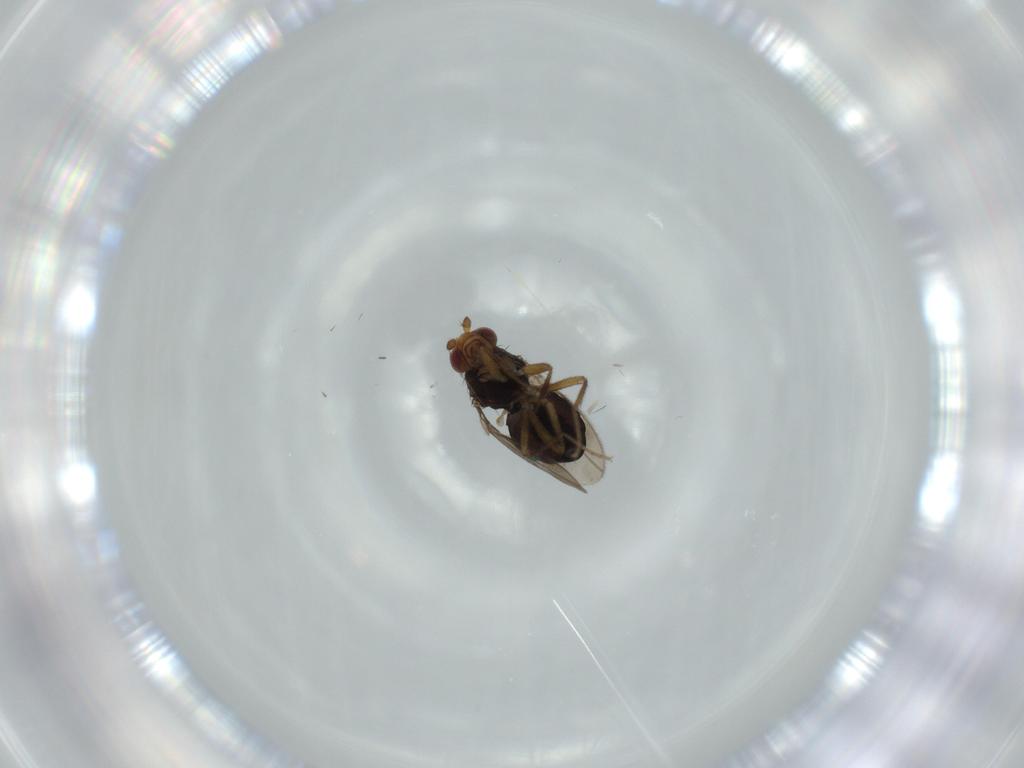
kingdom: Animalia
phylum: Arthropoda
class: Insecta
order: Diptera
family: Sphaeroceridae
